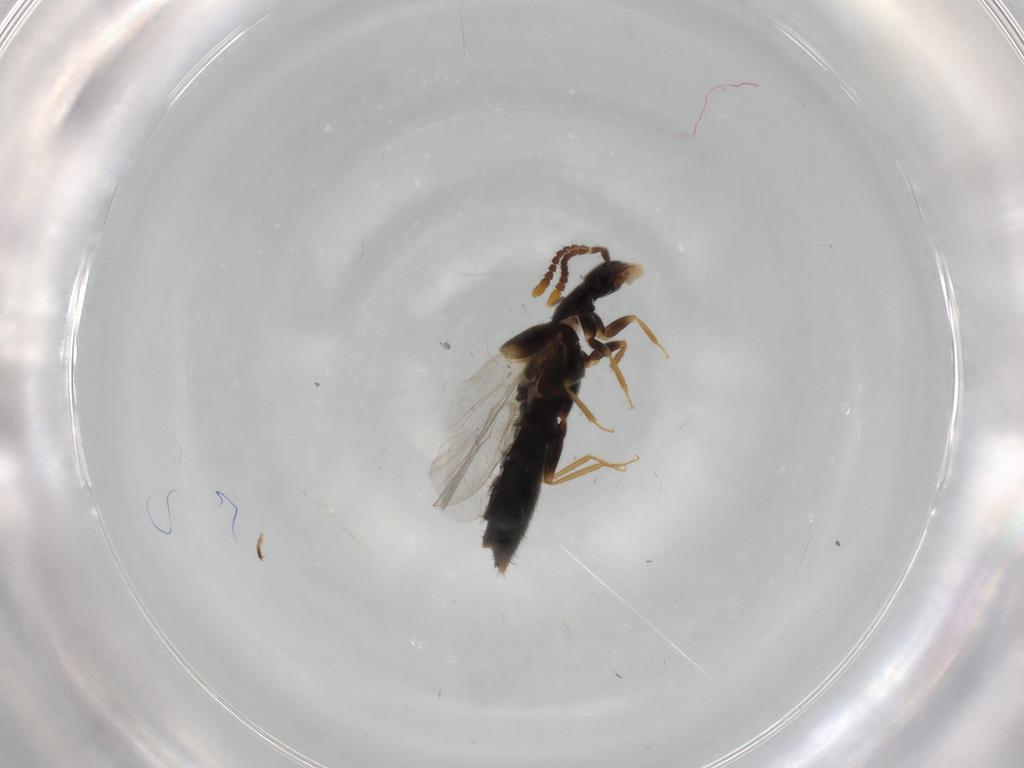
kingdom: Animalia
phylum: Arthropoda
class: Insecta
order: Coleoptera
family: Staphylinidae
